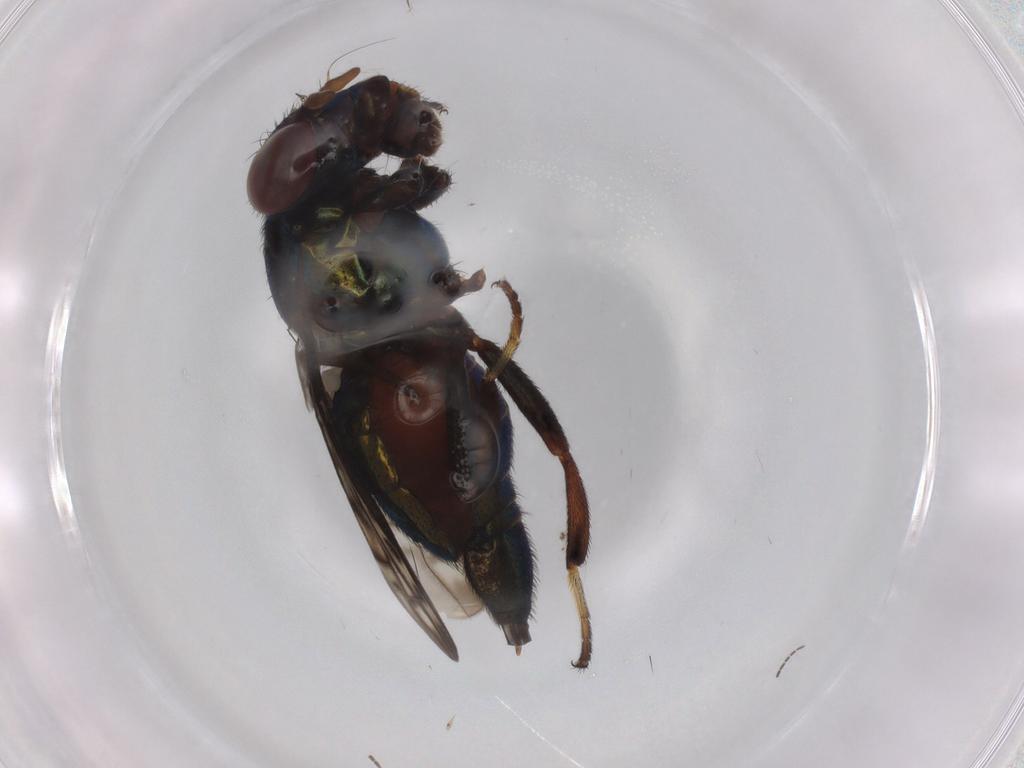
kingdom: Animalia
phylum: Arthropoda
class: Insecta
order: Diptera
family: Sciaridae
